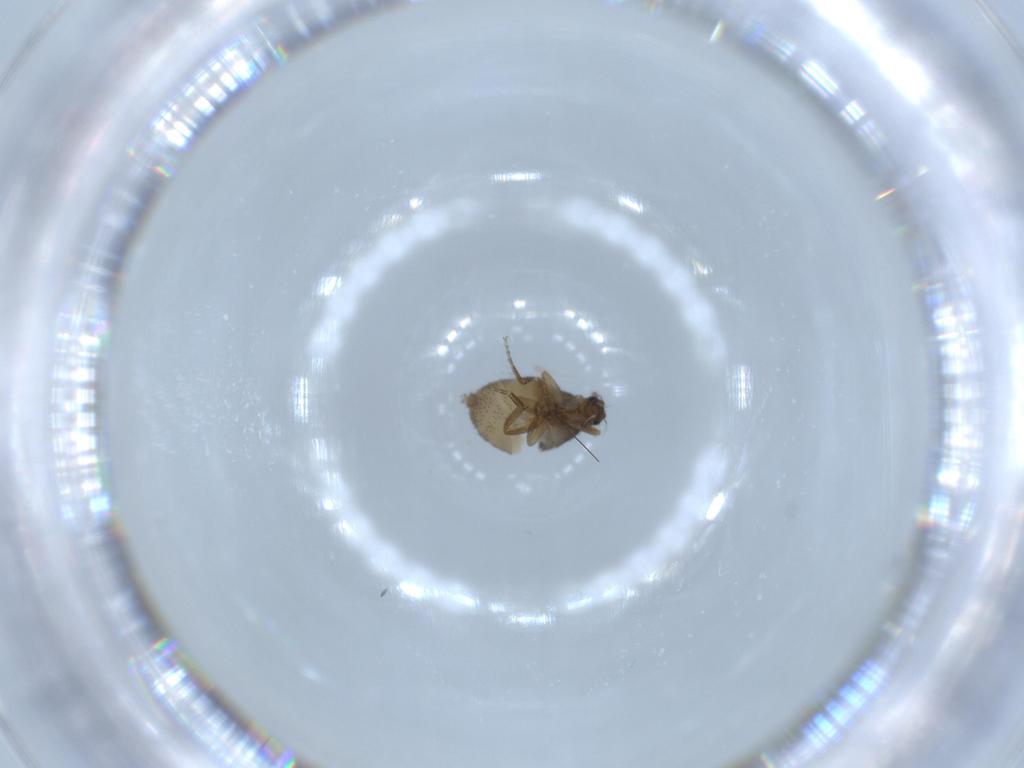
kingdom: Animalia
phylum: Arthropoda
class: Insecta
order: Diptera
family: Phoridae
